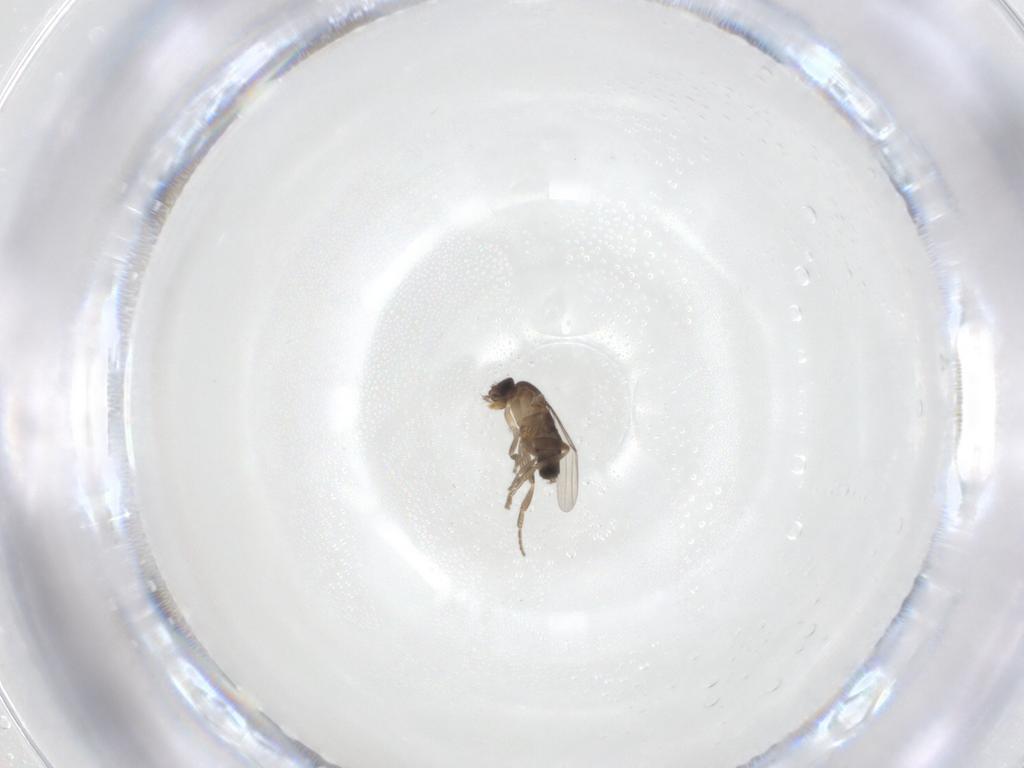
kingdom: Animalia
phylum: Arthropoda
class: Insecta
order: Diptera
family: Phoridae
